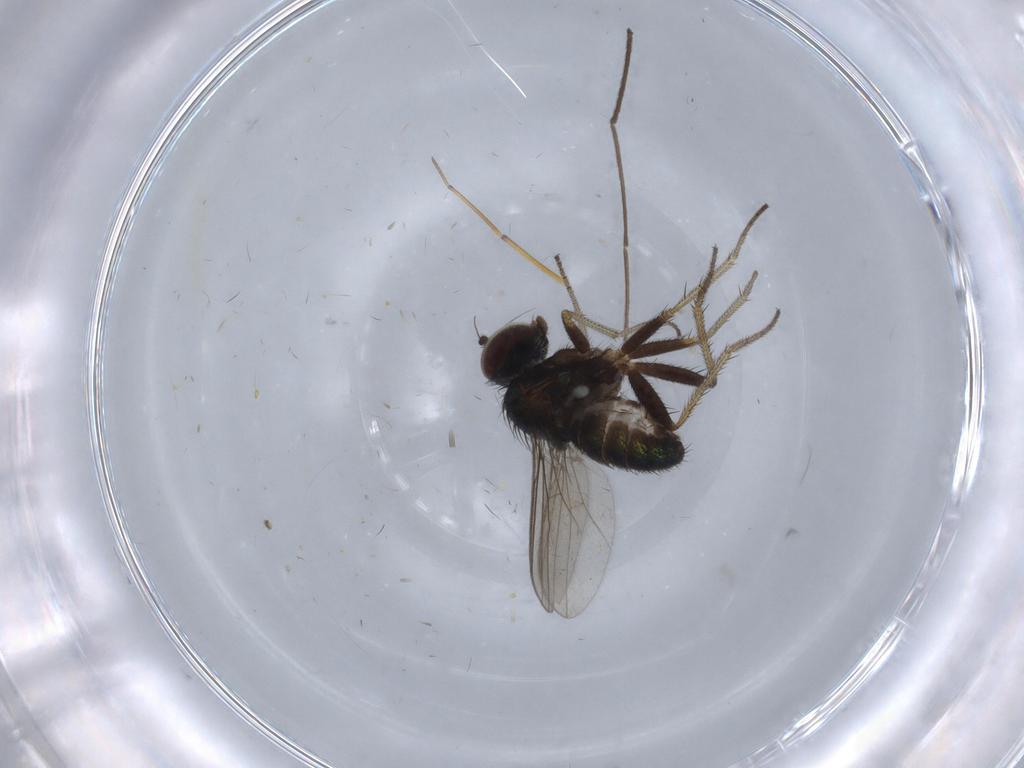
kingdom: Animalia
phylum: Arthropoda
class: Insecta
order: Diptera
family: Chironomidae
